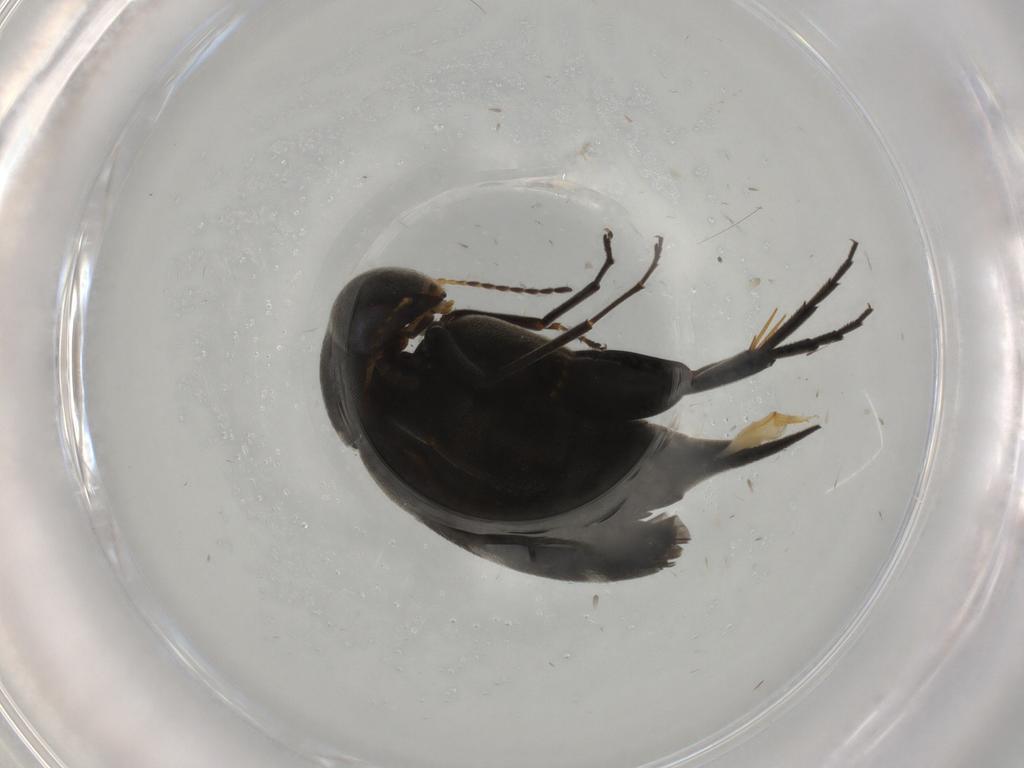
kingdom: Animalia
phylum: Arthropoda
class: Insecta
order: Coleoptera
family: Mordellidae
